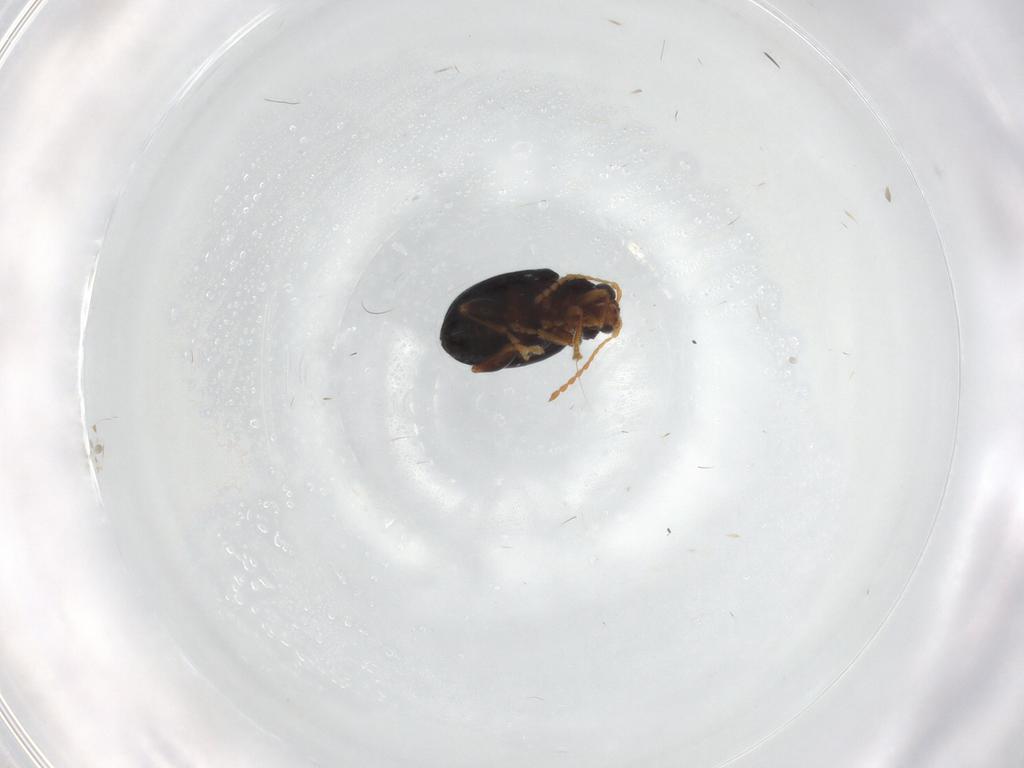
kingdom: Animalia
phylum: Arthropoda
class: Insecta
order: Coleoptera
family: Chrysomelidae
